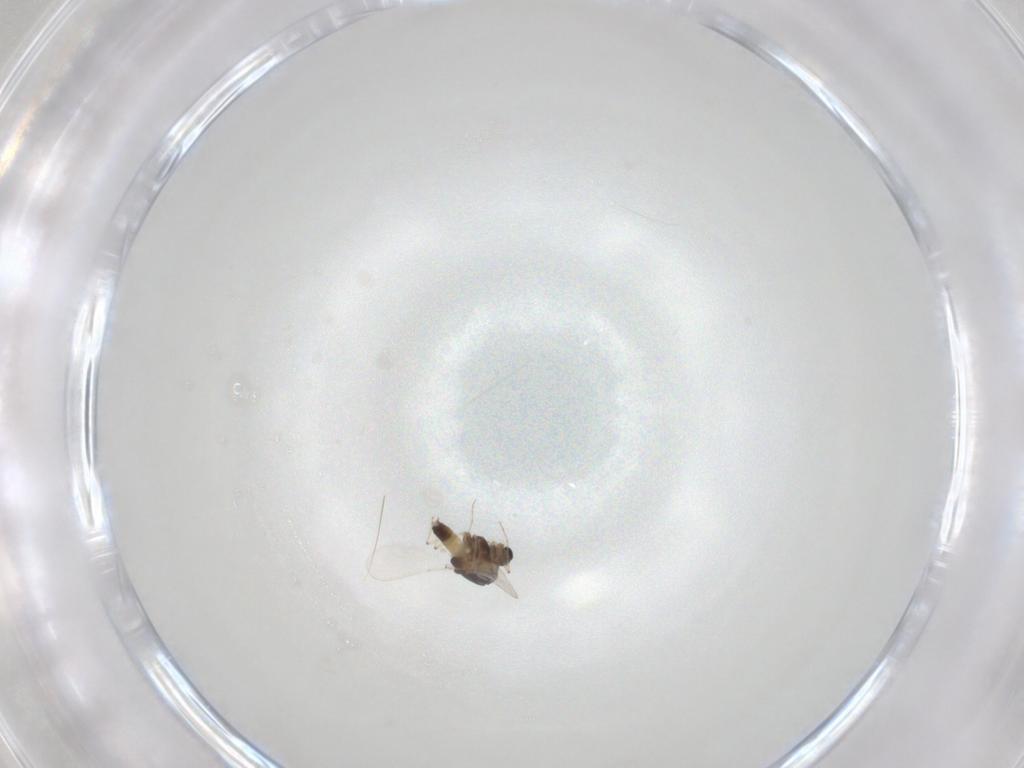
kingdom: Animalia
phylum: Arthropoda
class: Insecta
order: Diptera
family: Chironomidae
